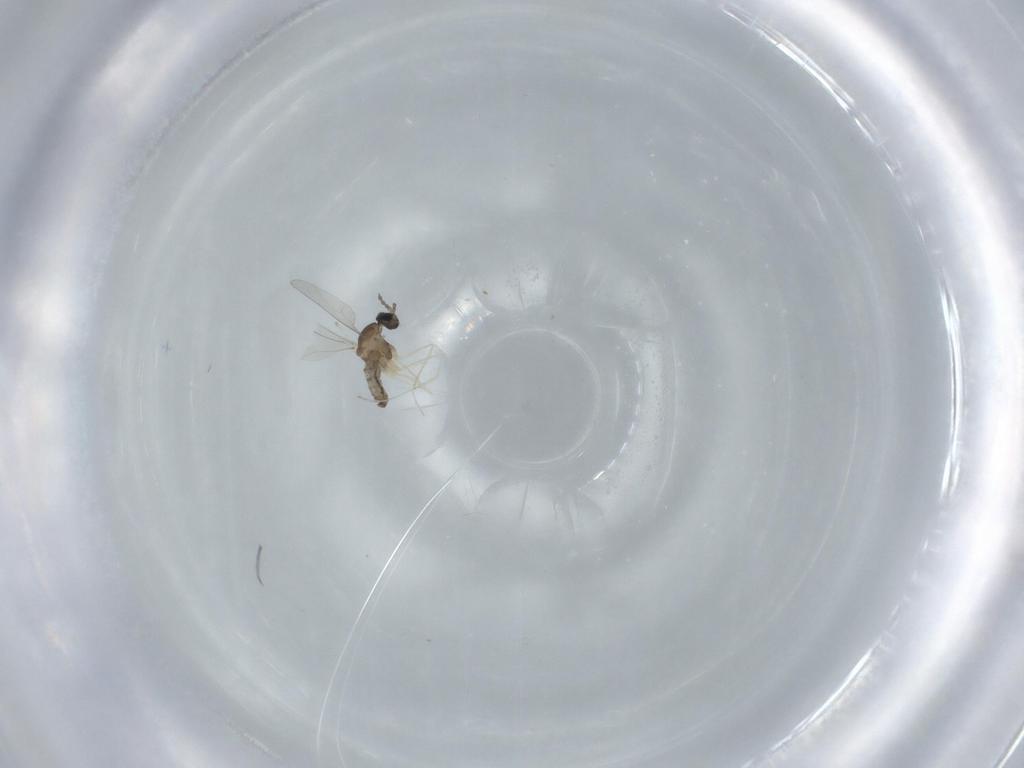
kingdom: Animalia
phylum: Arthropoda
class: Insecta
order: Diptera
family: Cecidomyiidae
